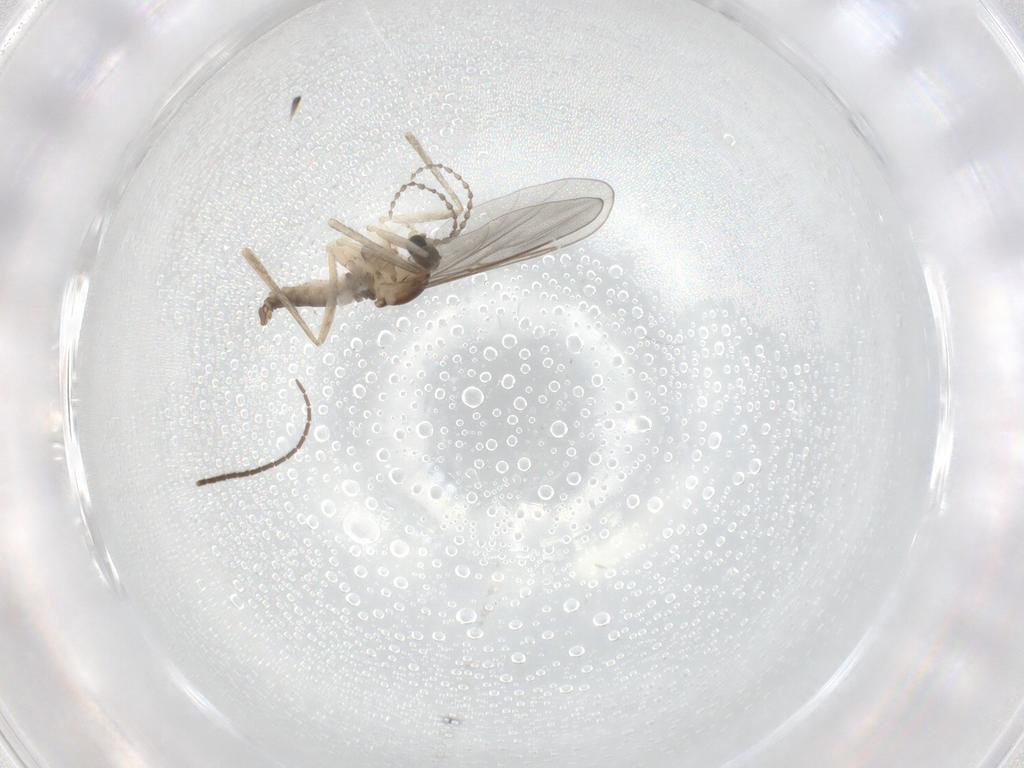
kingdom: Animalia
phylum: Arthropoda
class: Insecta
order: Diptera
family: Cecidomyiidae
